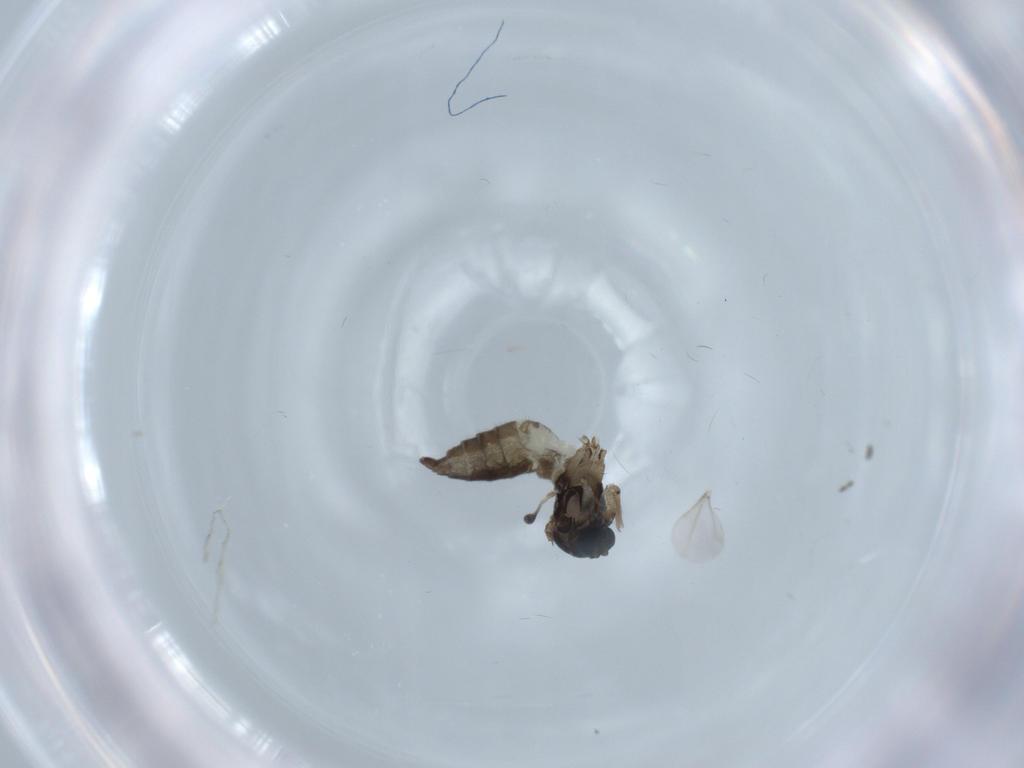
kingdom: Animalia
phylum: Arthropoda
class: Insecta
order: Diptera
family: Sciaridae
